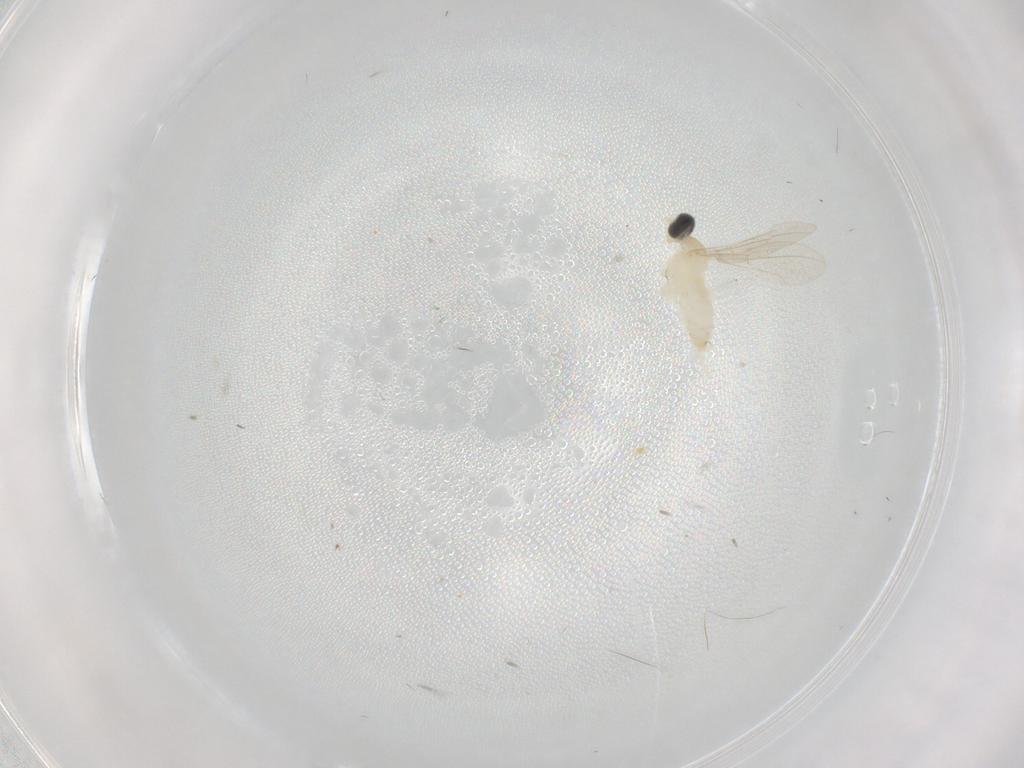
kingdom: Animalia
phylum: Arthropoda
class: Insecta
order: Diptera
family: Cecidomyiidae
